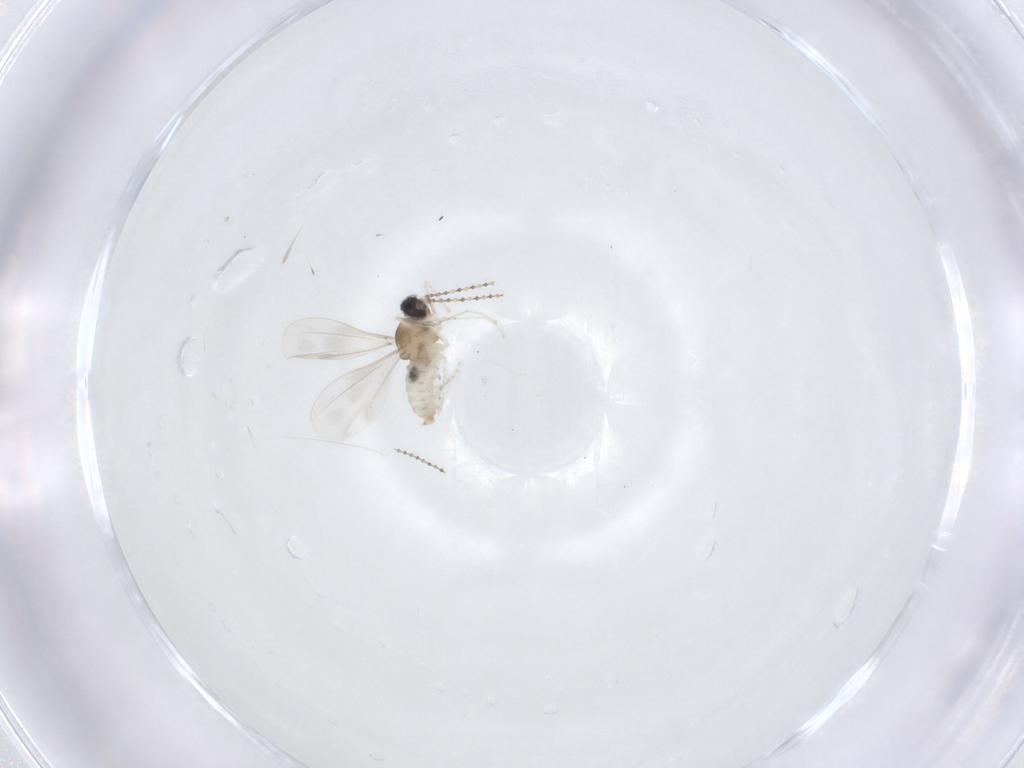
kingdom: Animalia
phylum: Arthropoda
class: Insecta
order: Diptera
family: Cecidomyiidae
